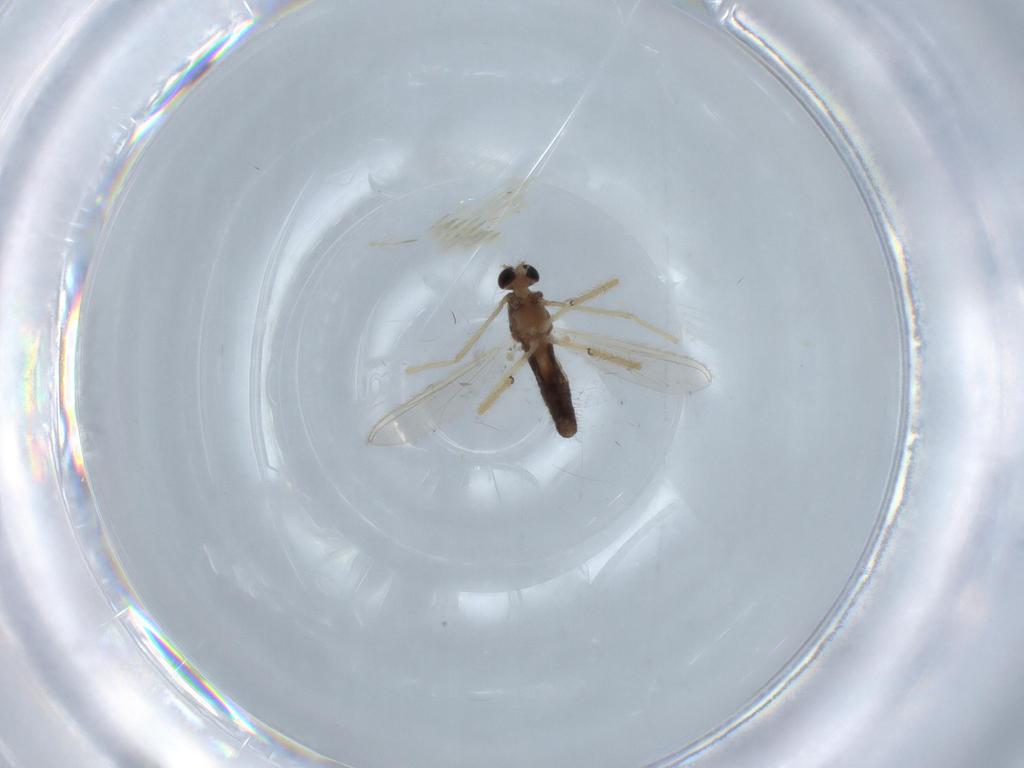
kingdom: Animalia
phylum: Arthropoda
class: Insecta
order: Diptera
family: Chironomidae
